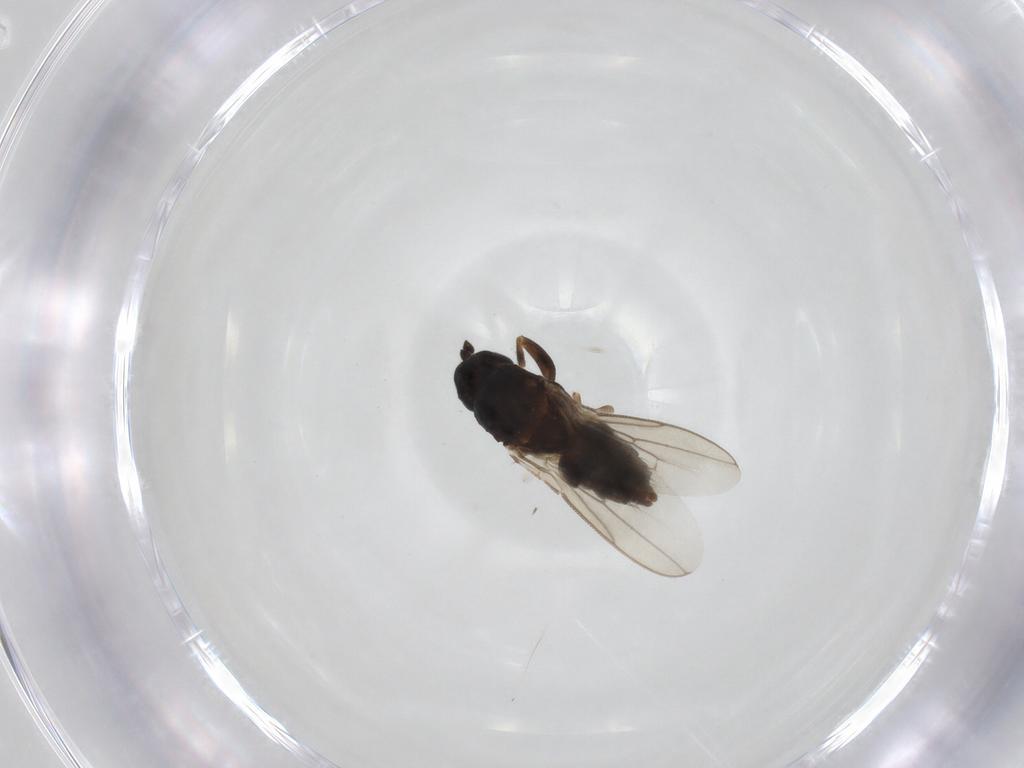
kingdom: Animalia
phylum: Arthropoda
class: Insecta
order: Diptera
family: Sphaeroceridae
